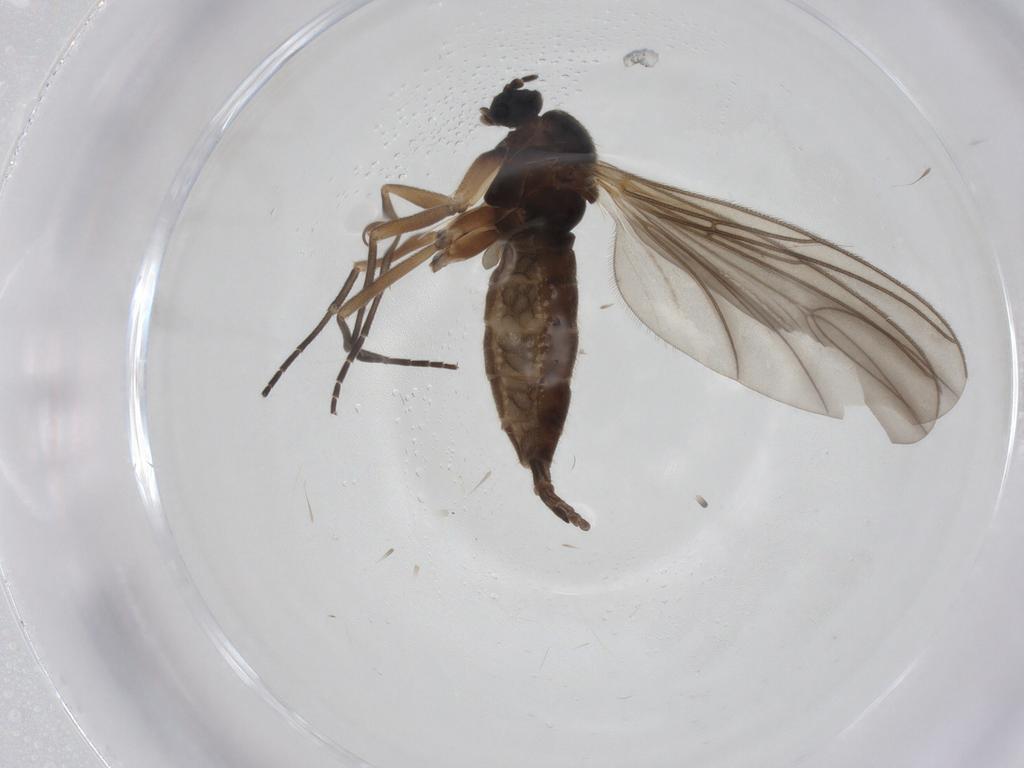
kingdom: Animalia
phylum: Arthropoda
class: Insecta
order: Diptera
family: Sciaridae
